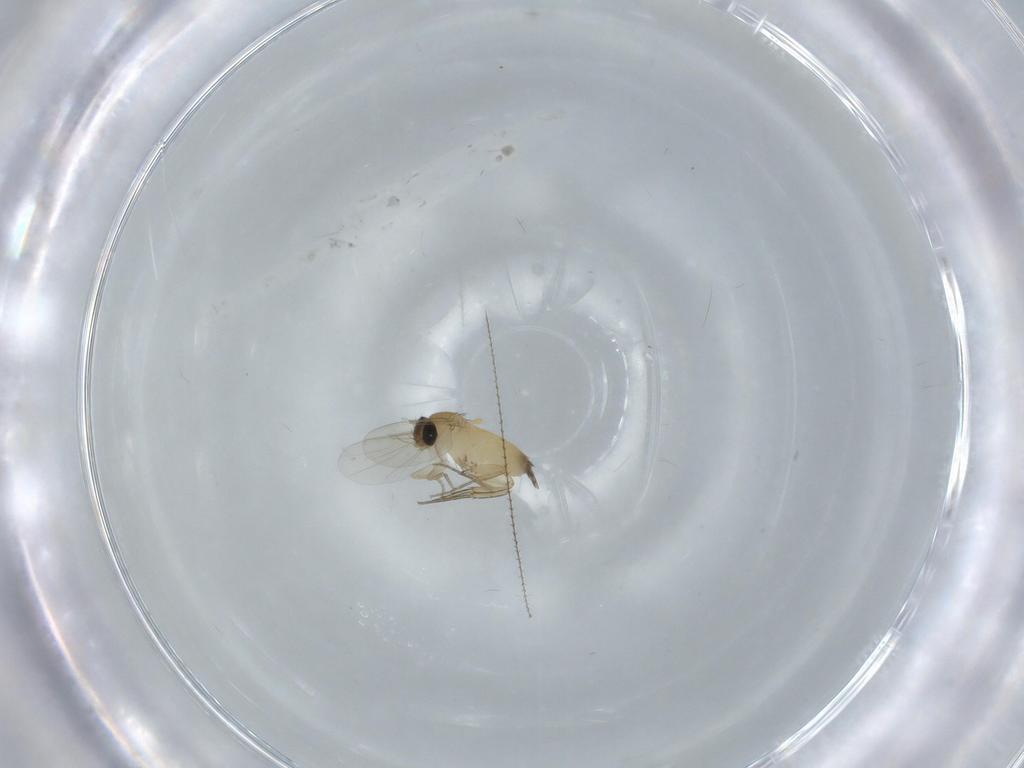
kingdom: Animalia
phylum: Arthropoda
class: Insecta
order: Diptera
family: Phoridae
